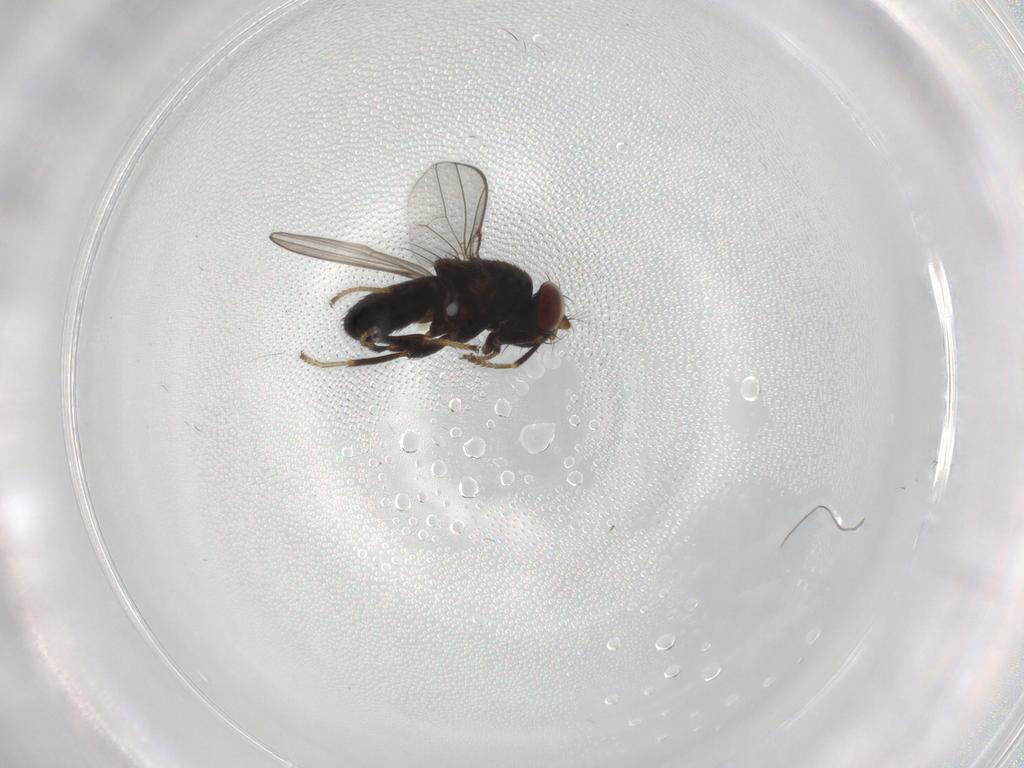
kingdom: Animalia
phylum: Arthropoda
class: Insecta
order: Diptera
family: Ephydridae
